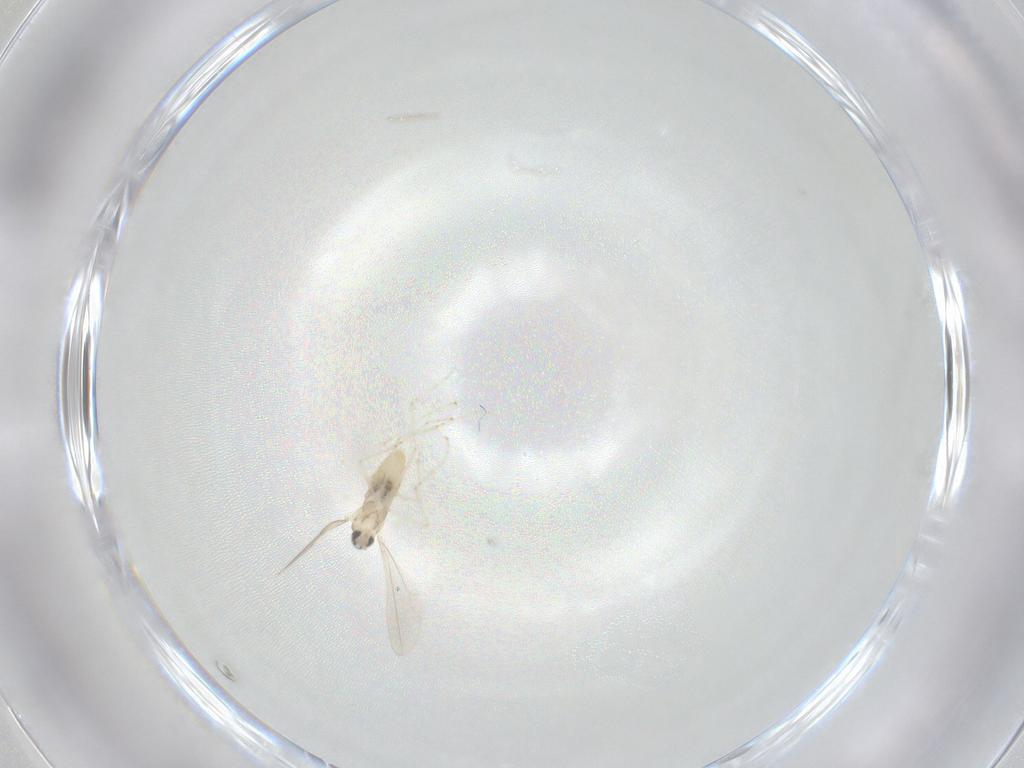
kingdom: Animalia
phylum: Arthropoda
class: Insecta
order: Diptera
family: Cecidomyiidae
